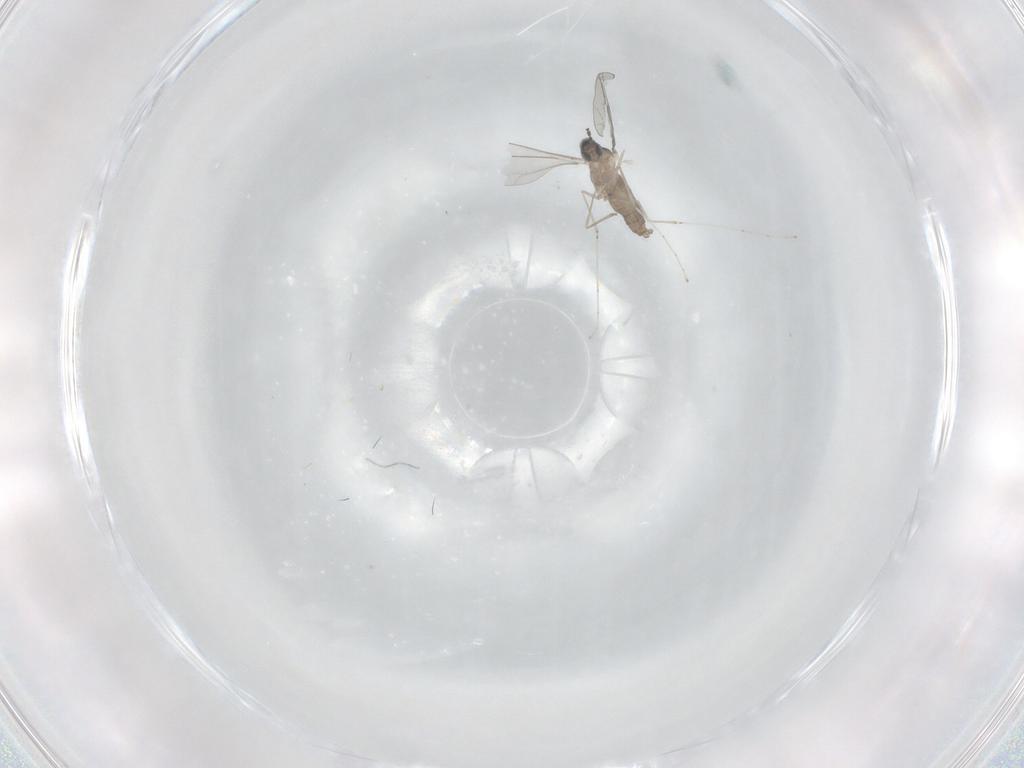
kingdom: Animalia
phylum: Arthropoda
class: Insecta
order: Diptera
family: Cecidomyiidae
